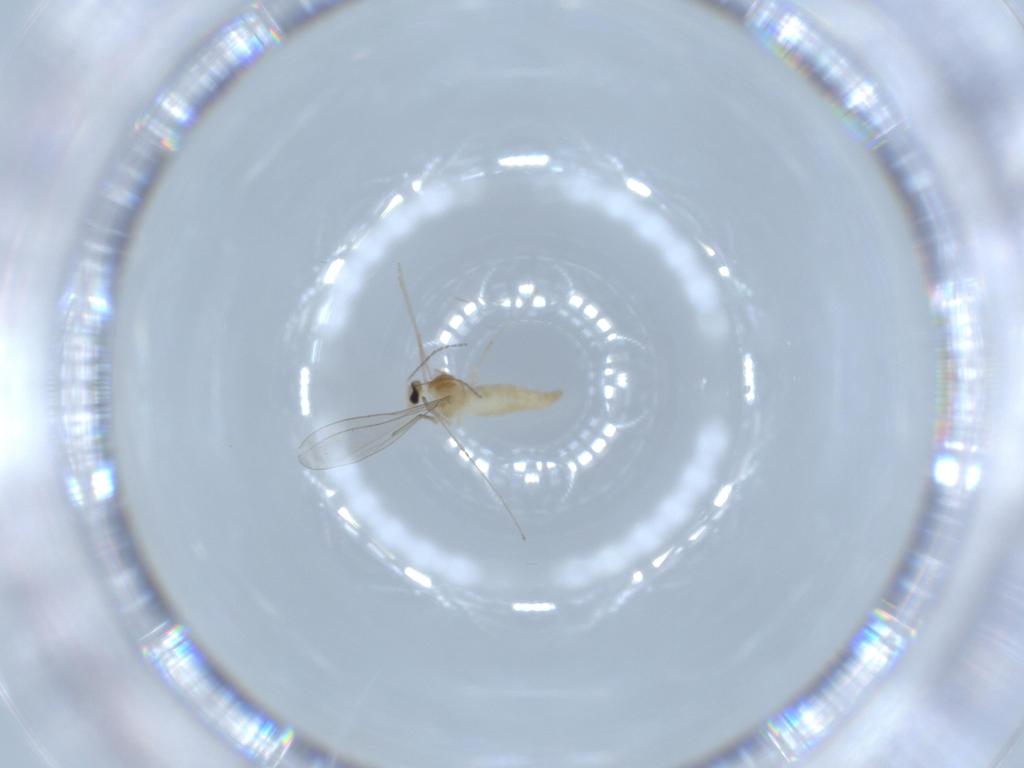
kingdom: Animalia
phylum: Arthropoda
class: Insecta
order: Diptera
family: Cecidomyiidae
